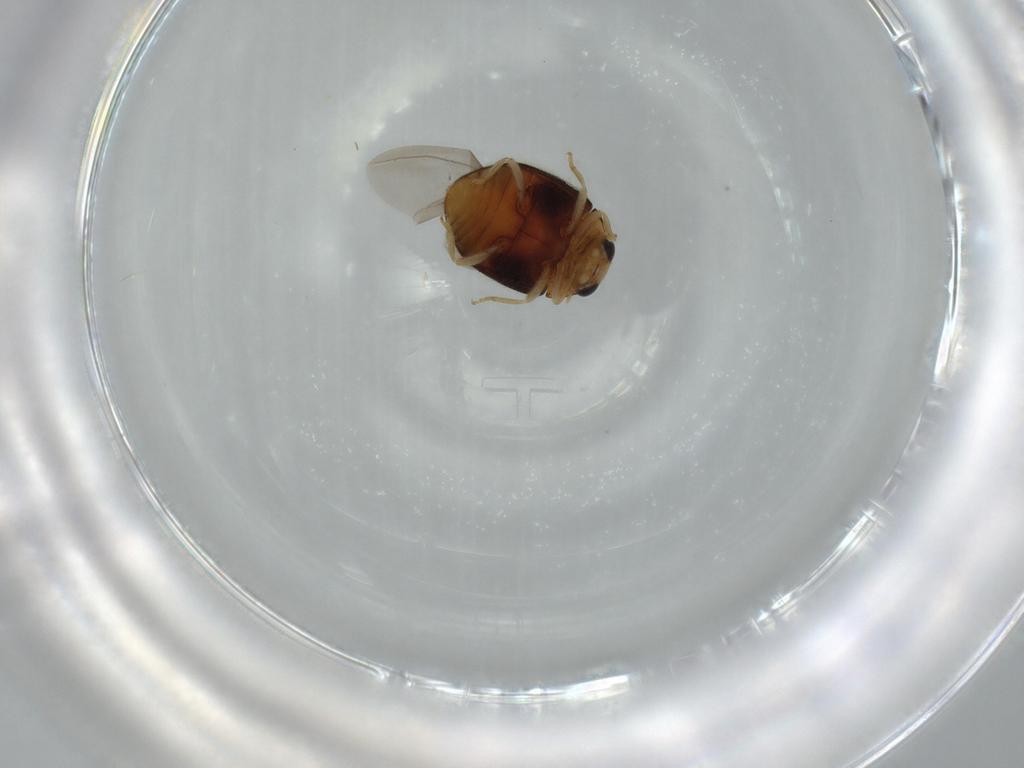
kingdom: Animalia
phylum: Arthropoda
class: Insecta
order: Coleoptera
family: Coccinellidae
